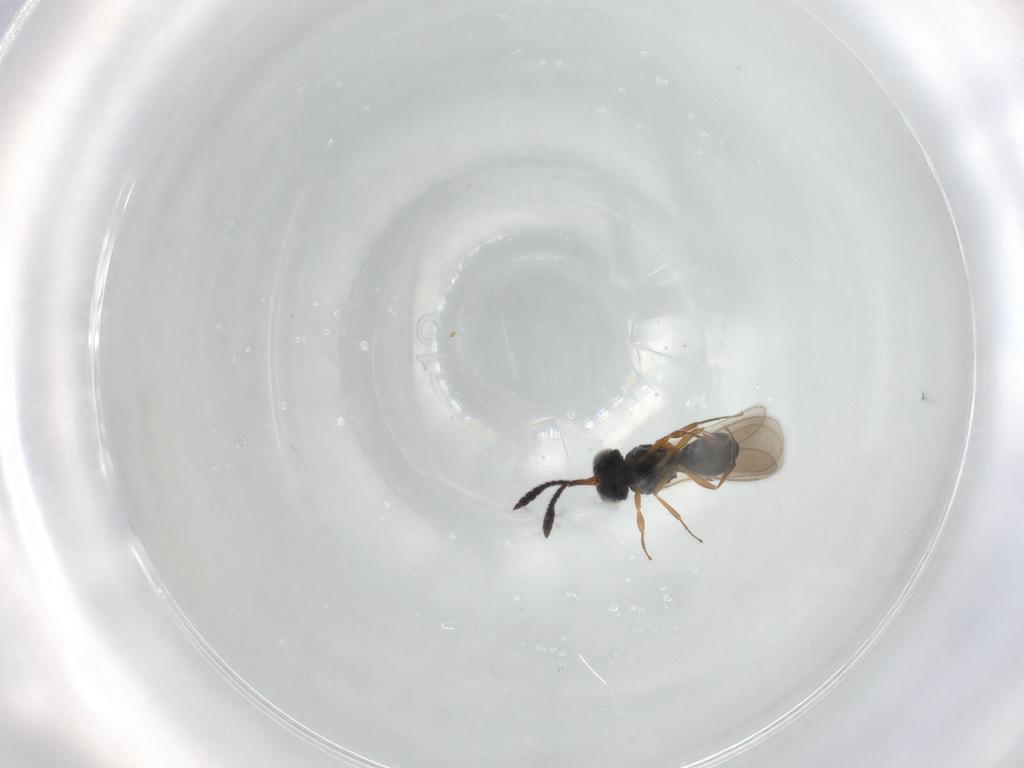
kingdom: Animalia
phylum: Arthropoda
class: Insecta
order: Hymenoptera
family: Scelionidae
